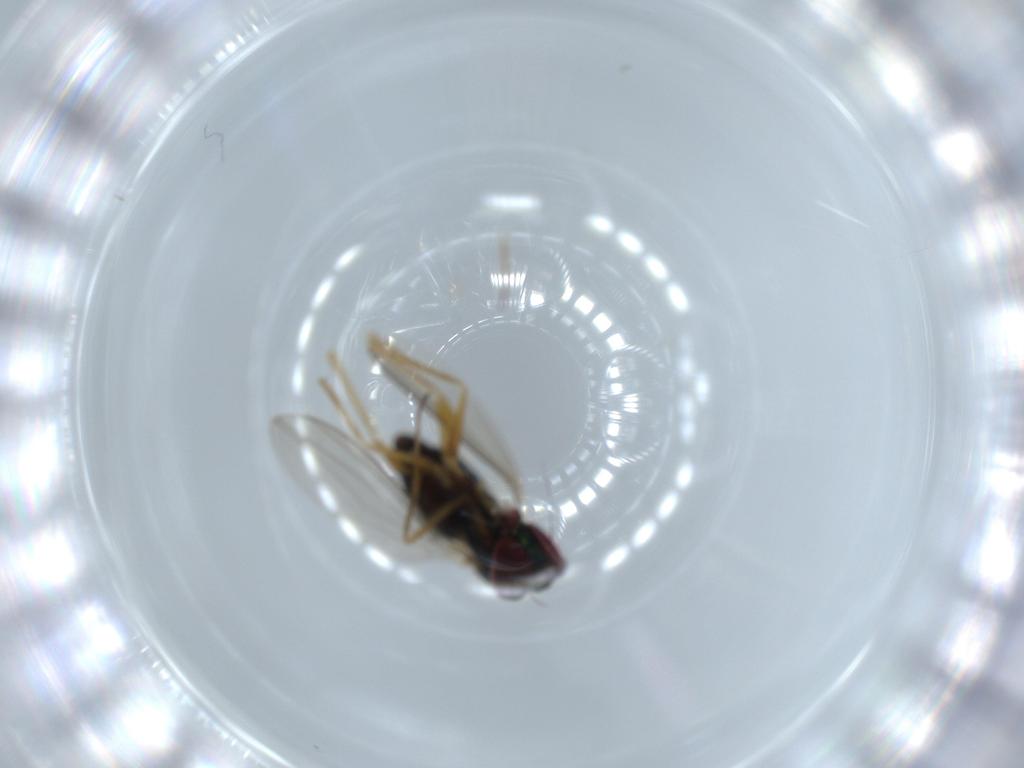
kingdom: Animalia
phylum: Arthropoda
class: Insecta
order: Diptera
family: Dolichopodidae
